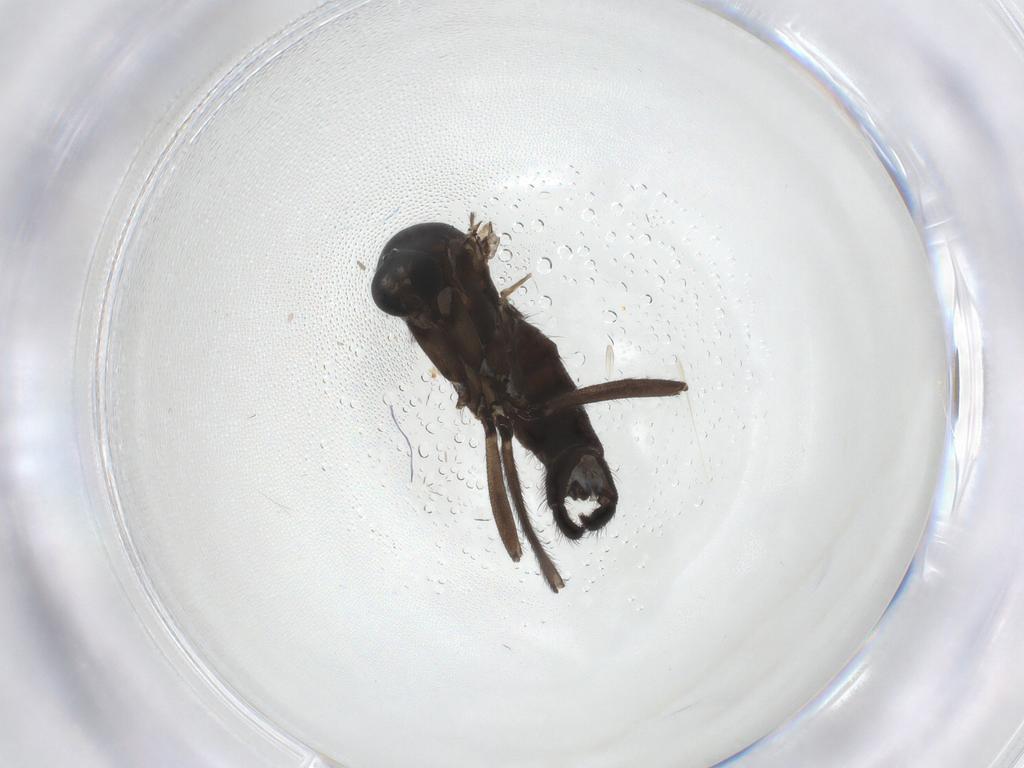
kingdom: Animalia
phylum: Arthropoda
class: Insecta
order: Diptera
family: Sciaridae
